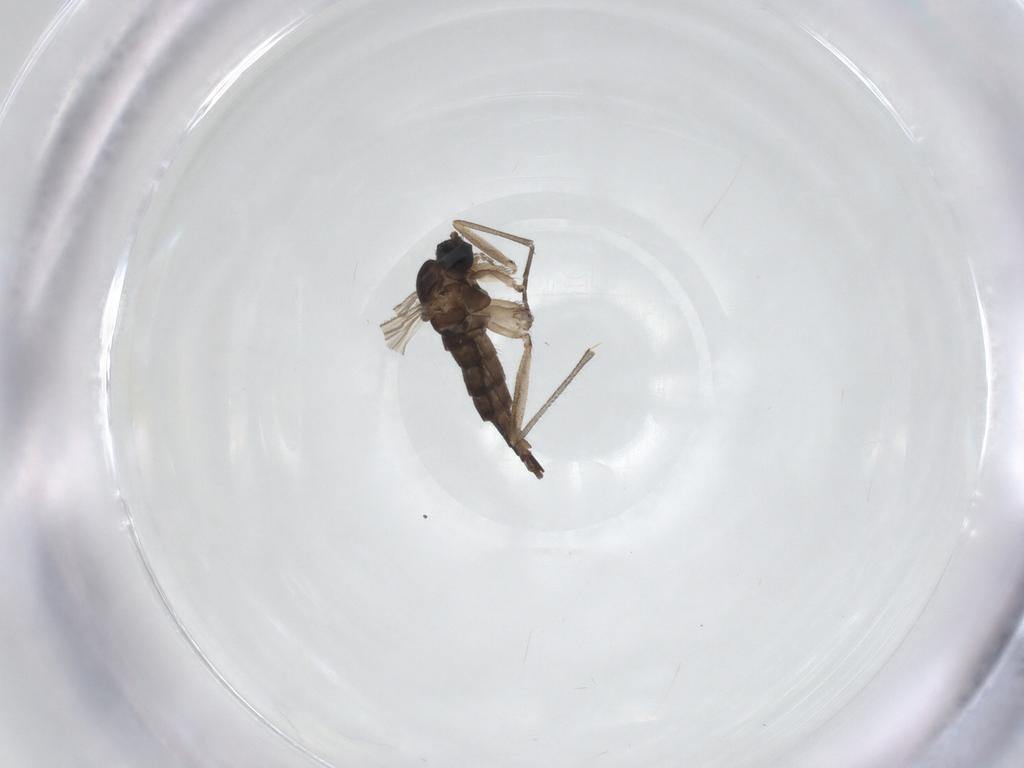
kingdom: Animalia
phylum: Arthropoda
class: Insecta
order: Diptera
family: Sciaridae
